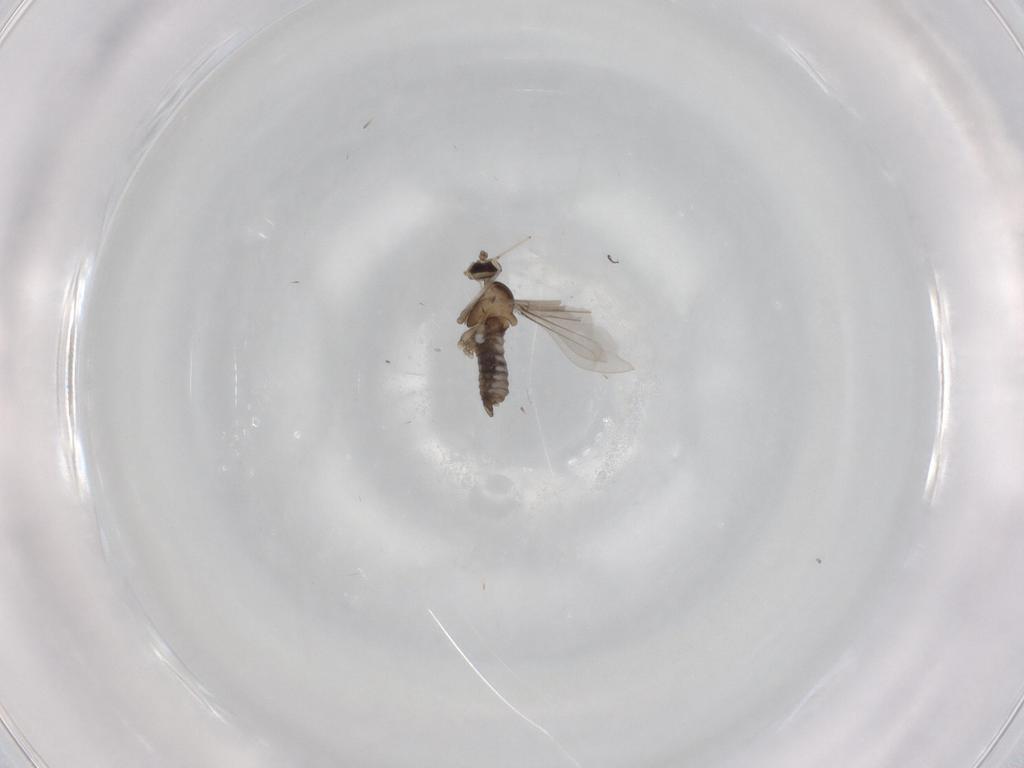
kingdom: Animalia
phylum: Arthropoda
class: Insecta
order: Diptera
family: Cecidomyiidae
